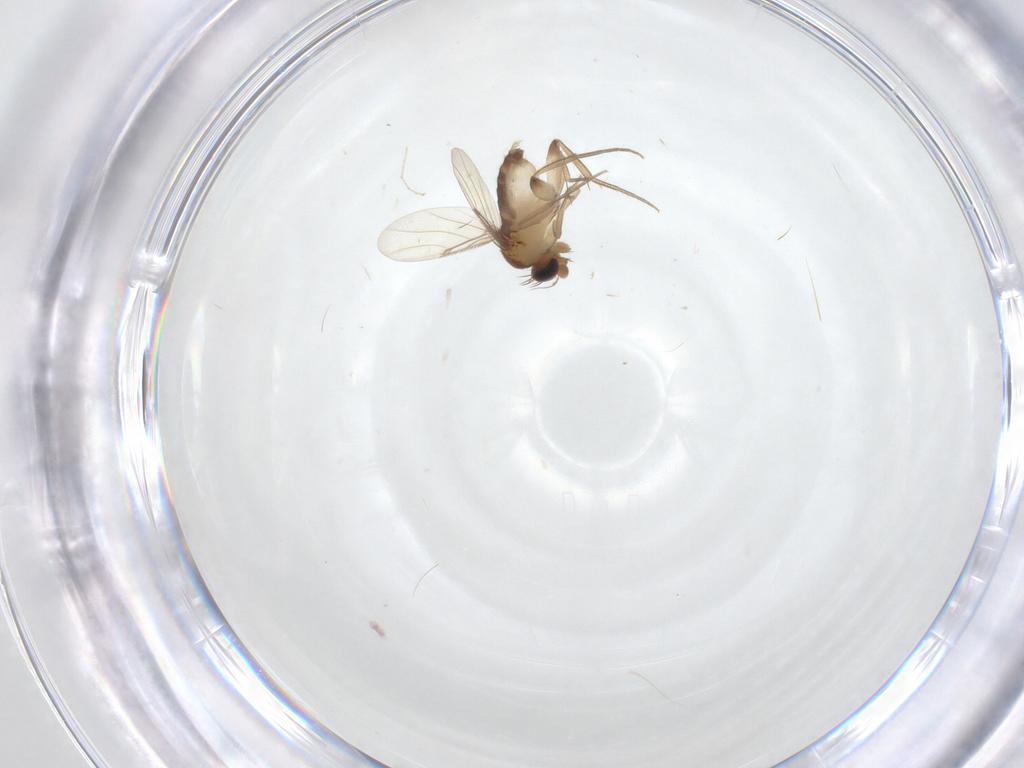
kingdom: Animalia
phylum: Arthropoda
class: Insecta
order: Diptera
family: Phoridae
